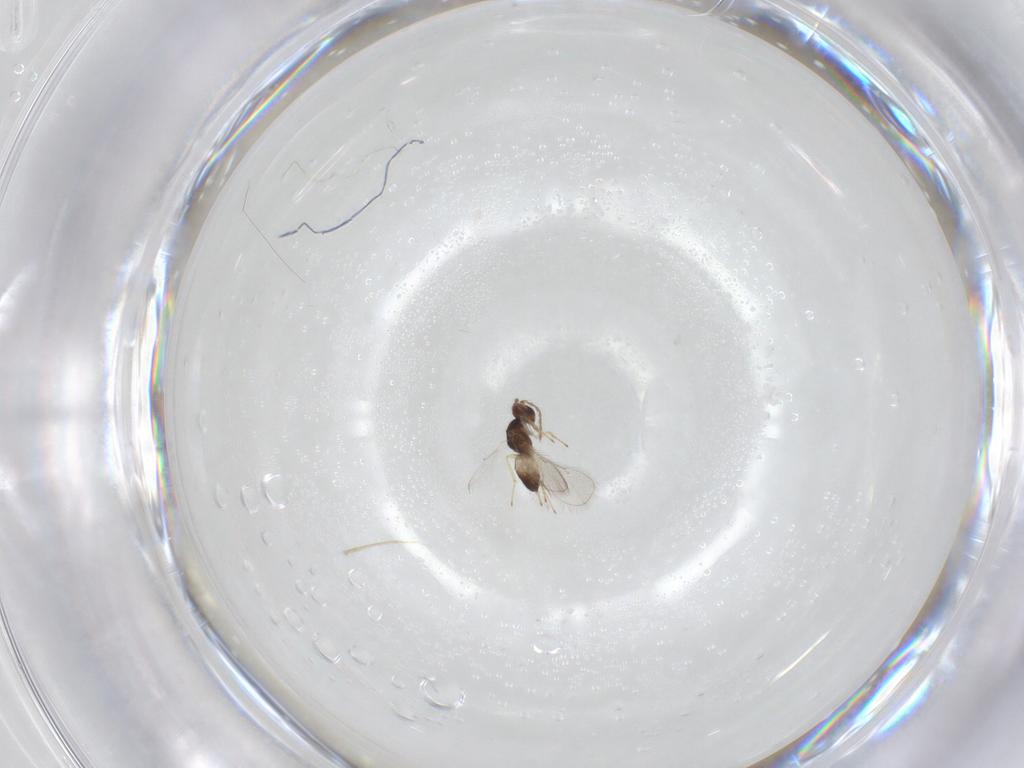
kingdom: Animalia
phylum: Arthropoda
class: Insecta
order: Hymenoptera
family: Eulophidae
